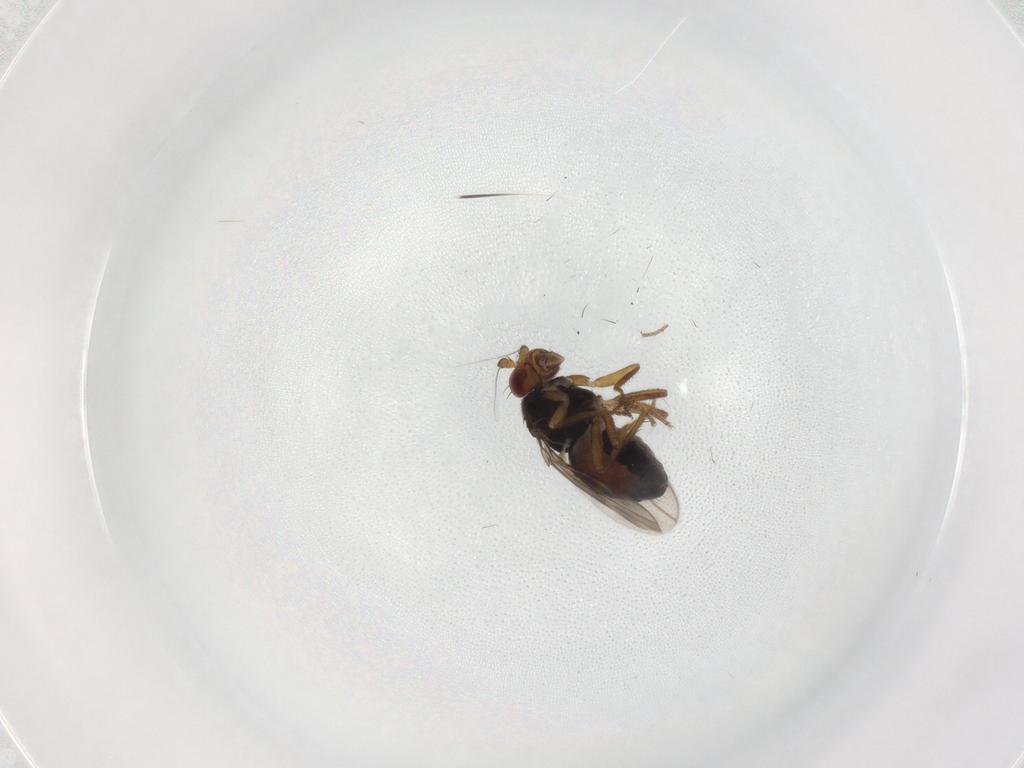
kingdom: Animalia
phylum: Arthropoda
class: Insecta
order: Diptera
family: Sphaeroceridae
